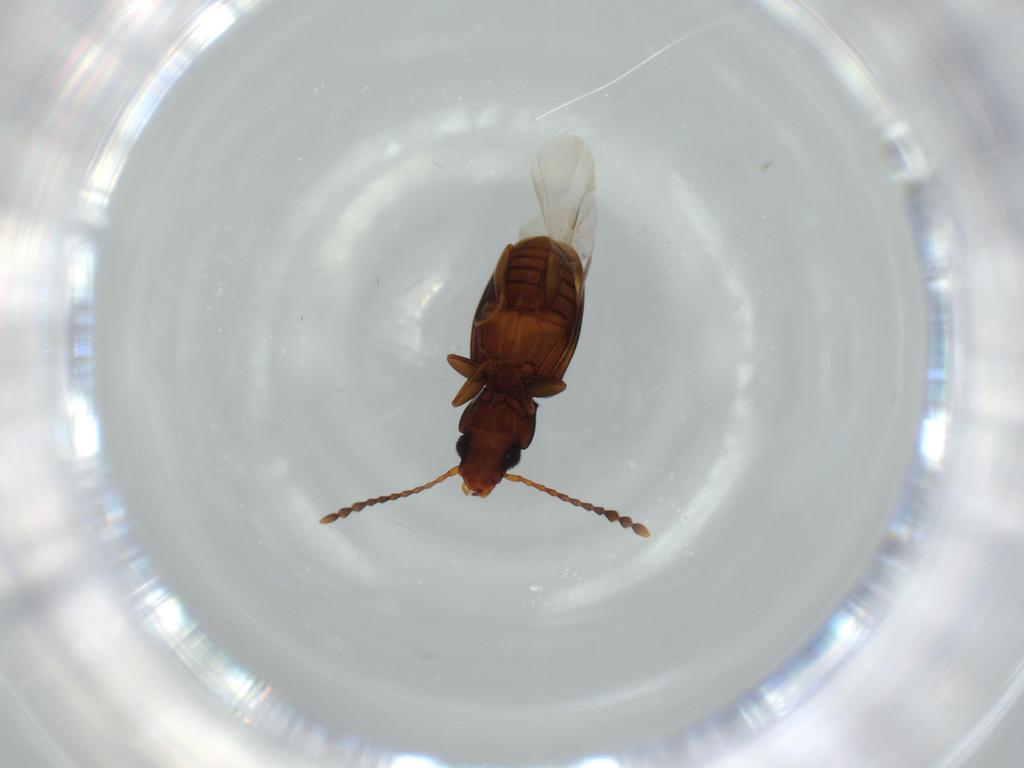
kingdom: Animalia
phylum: Arthropoda
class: Insecta
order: Coleoptera
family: Laemophloeidae
